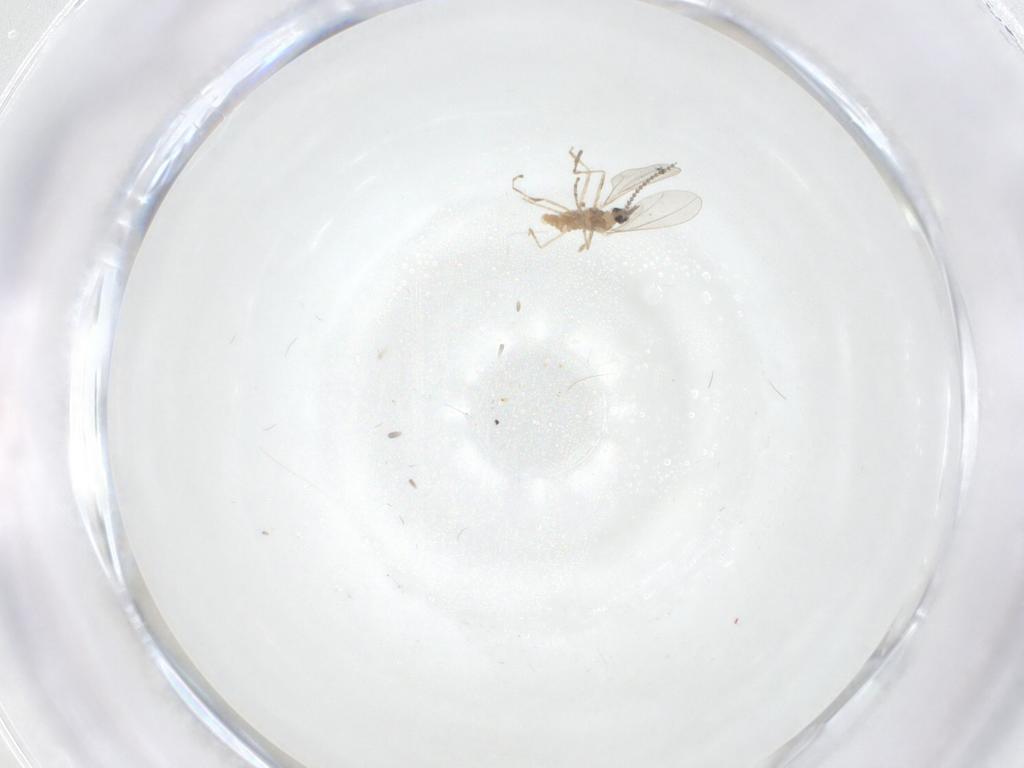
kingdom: Animalia
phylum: Arthropoda
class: Insecta
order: Diptera
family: Cecidomyiidae
